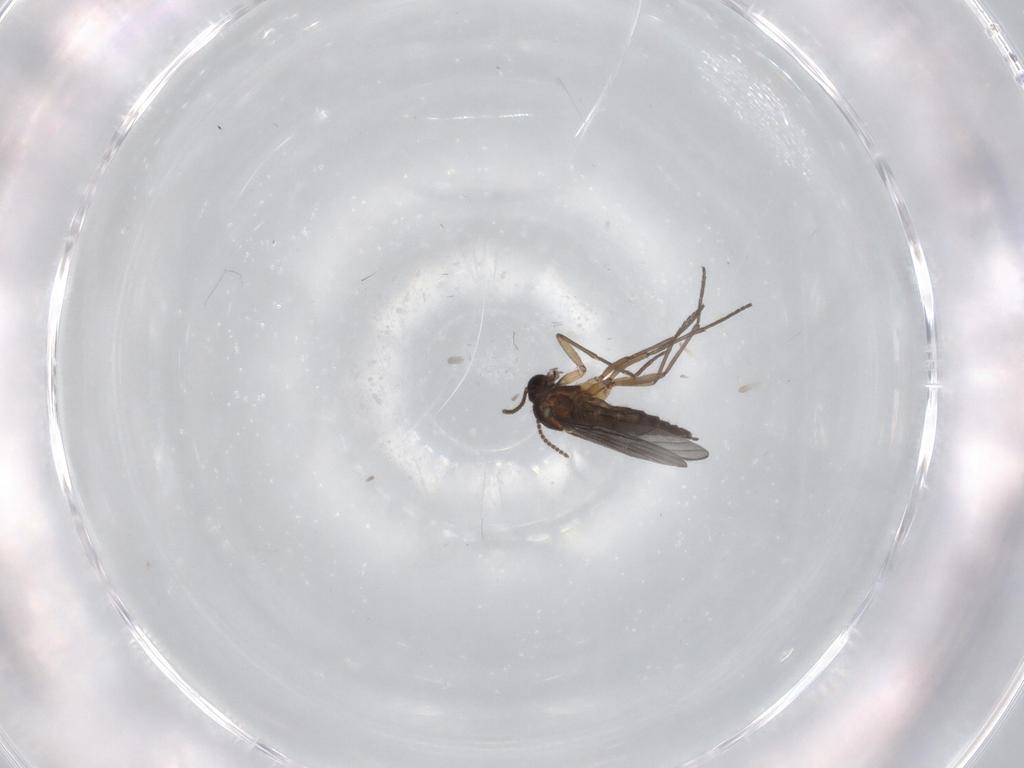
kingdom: Animalia
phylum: Arthropoda
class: Insecta
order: Diptera
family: Sciaridae
